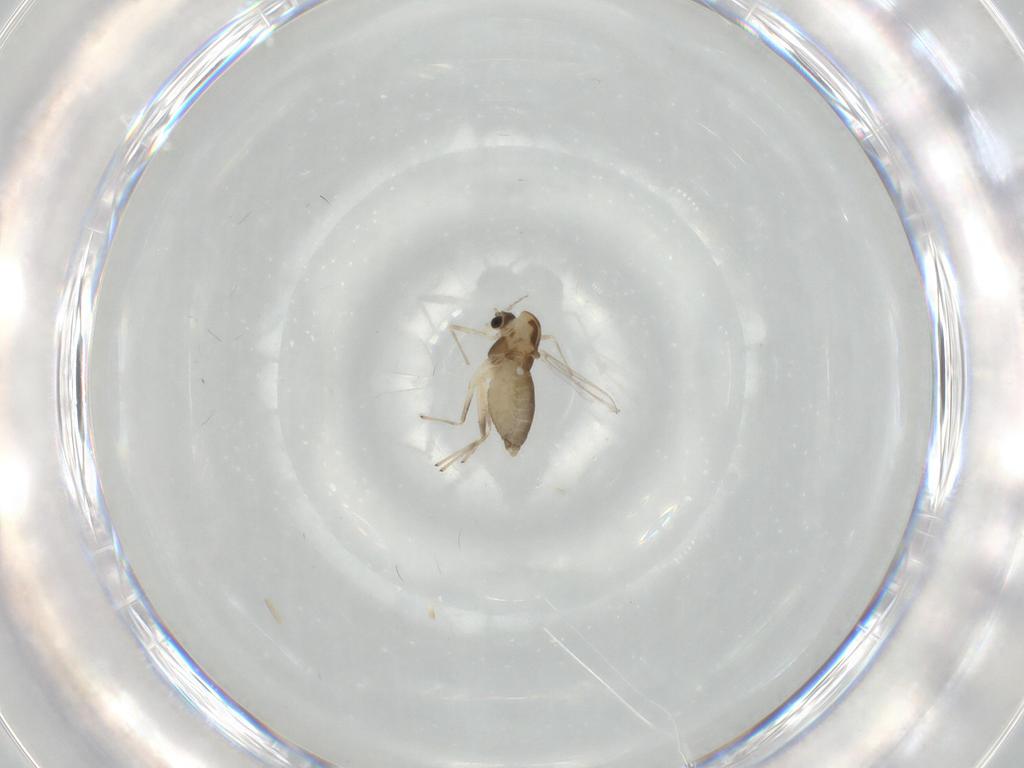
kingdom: Animalia
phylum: Arthropoda
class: Insecta
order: Diptera
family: Chironomidae
